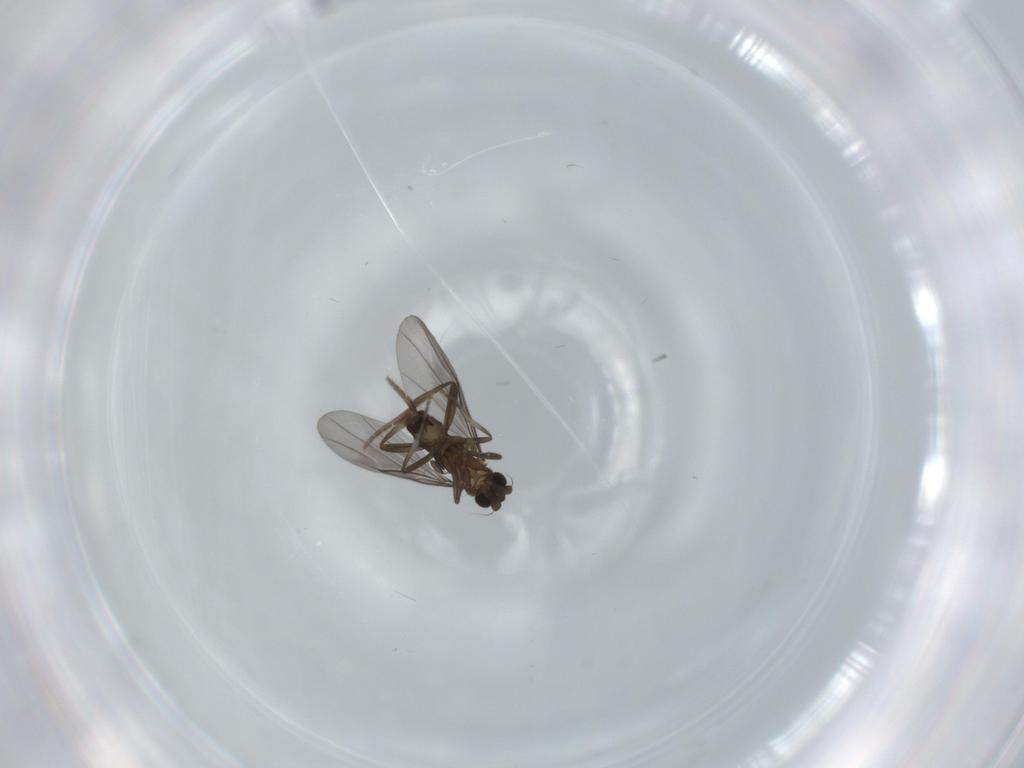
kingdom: Animalia
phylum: Arthropoda
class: Insecta
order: Diptera
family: Phoridae
